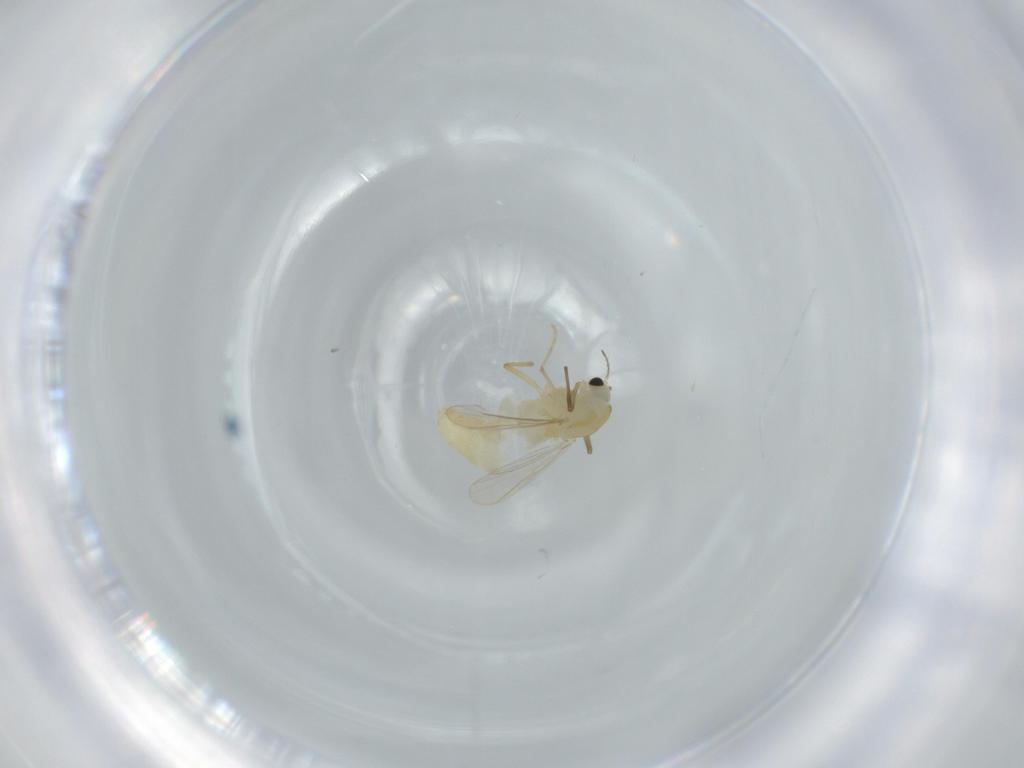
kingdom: Animalia
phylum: Arthropoda
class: Insecta
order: Diptera
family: Chironomidae
